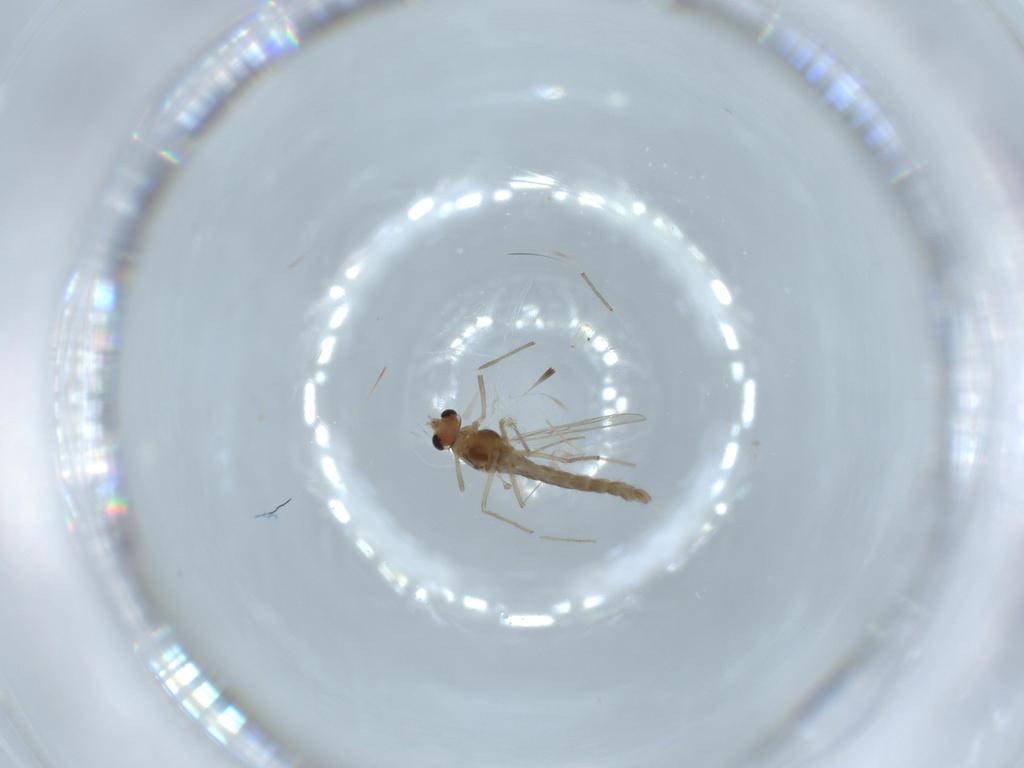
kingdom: Animalia
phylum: Arthropoda
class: Insecta
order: Diptera
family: Chironomidae
